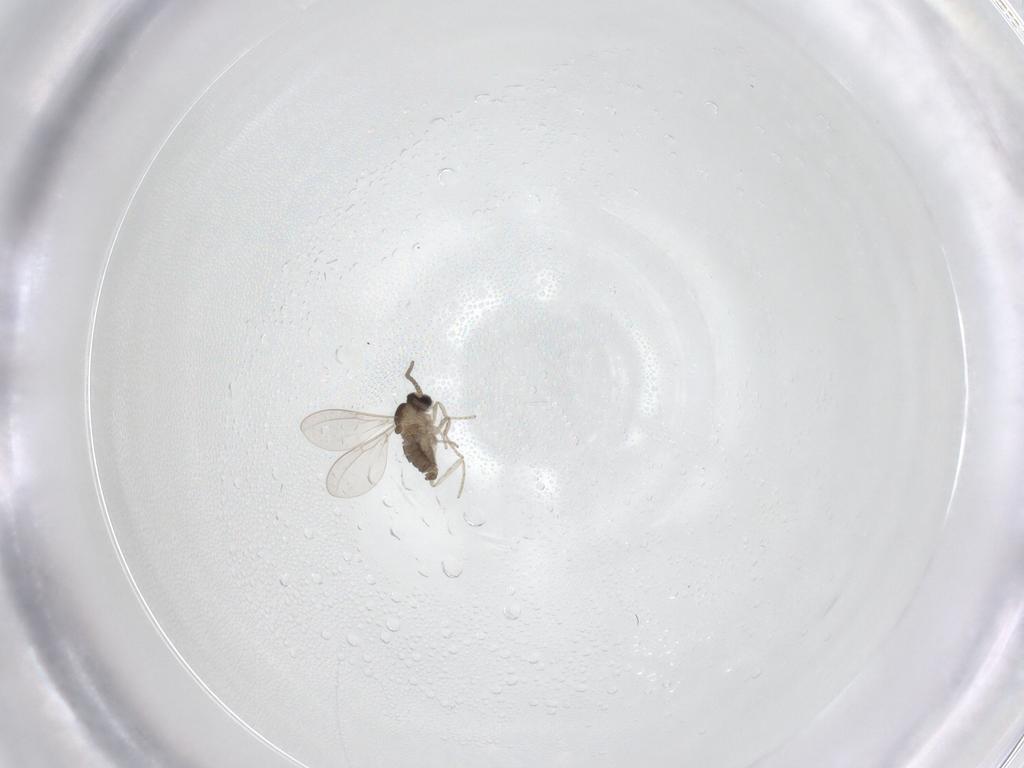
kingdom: Animalia
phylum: Arthropoda
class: Insecta
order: Diptera
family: Cecidomyiidae
